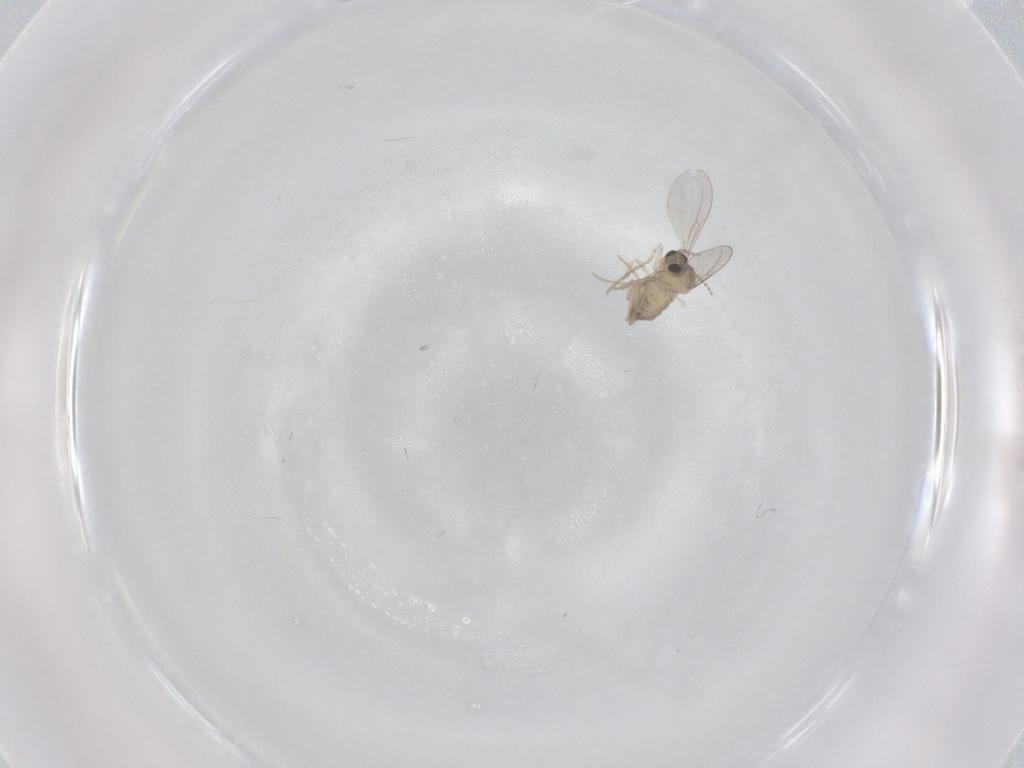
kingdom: Animalia
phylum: Arthropoda
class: Insecta
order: Diptera
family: Cecidomyiidae
